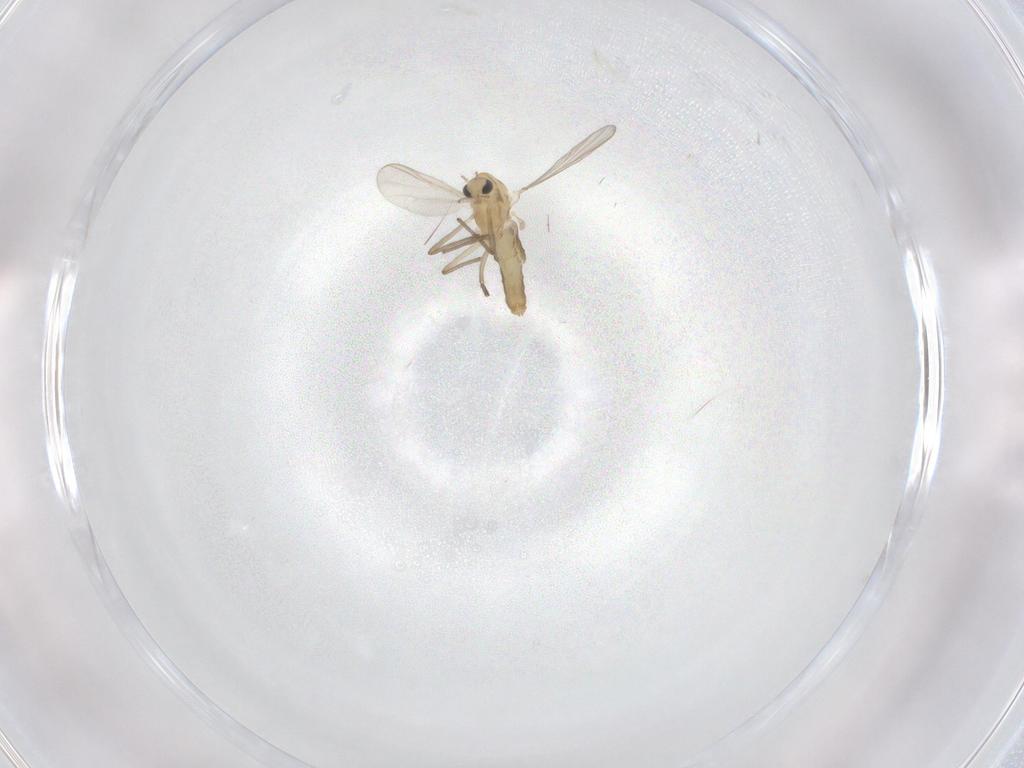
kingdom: Animalia
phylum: Arthropoda
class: Insecta
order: Diptera
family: Chironomidae
